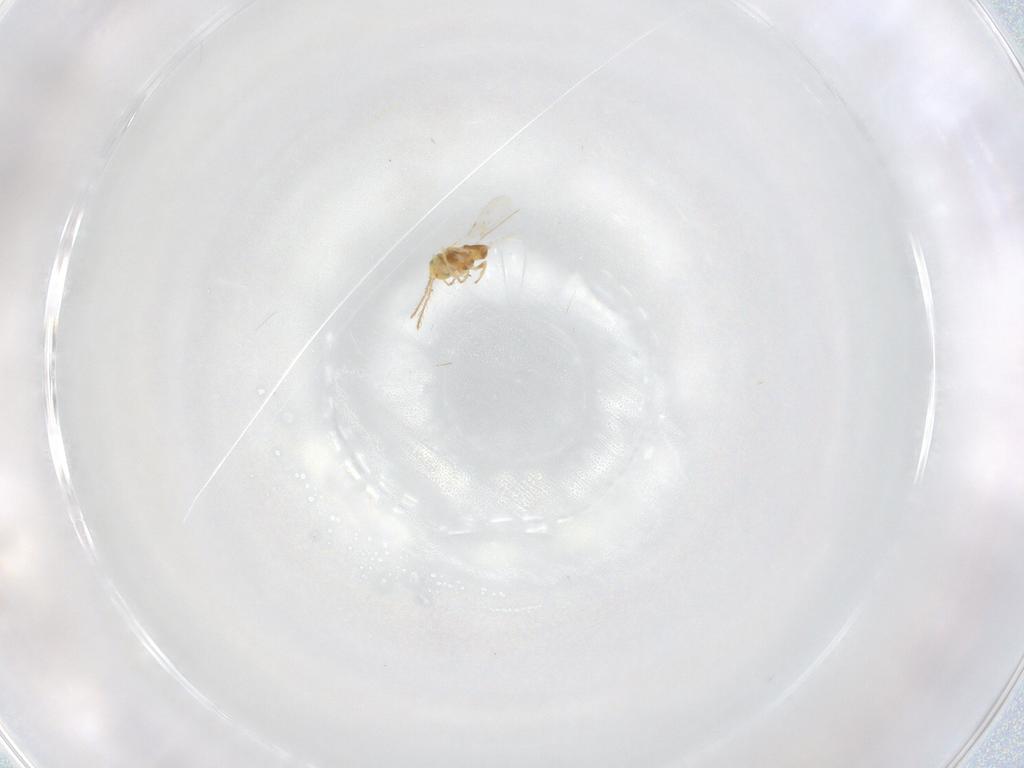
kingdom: Animalia
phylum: Arthropoda
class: Insecta
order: Hymenoptera
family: Encyrtidae
